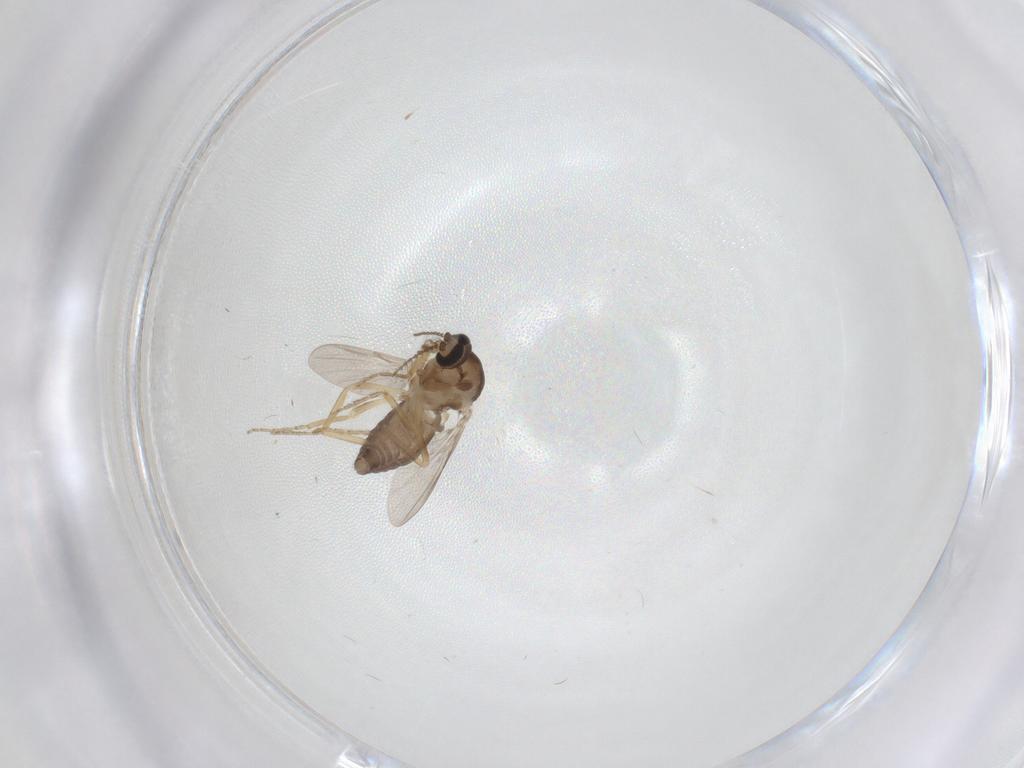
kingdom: Animalia
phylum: Arthropoda
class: Insecta
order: Diptera
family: Ceratopogonidae
